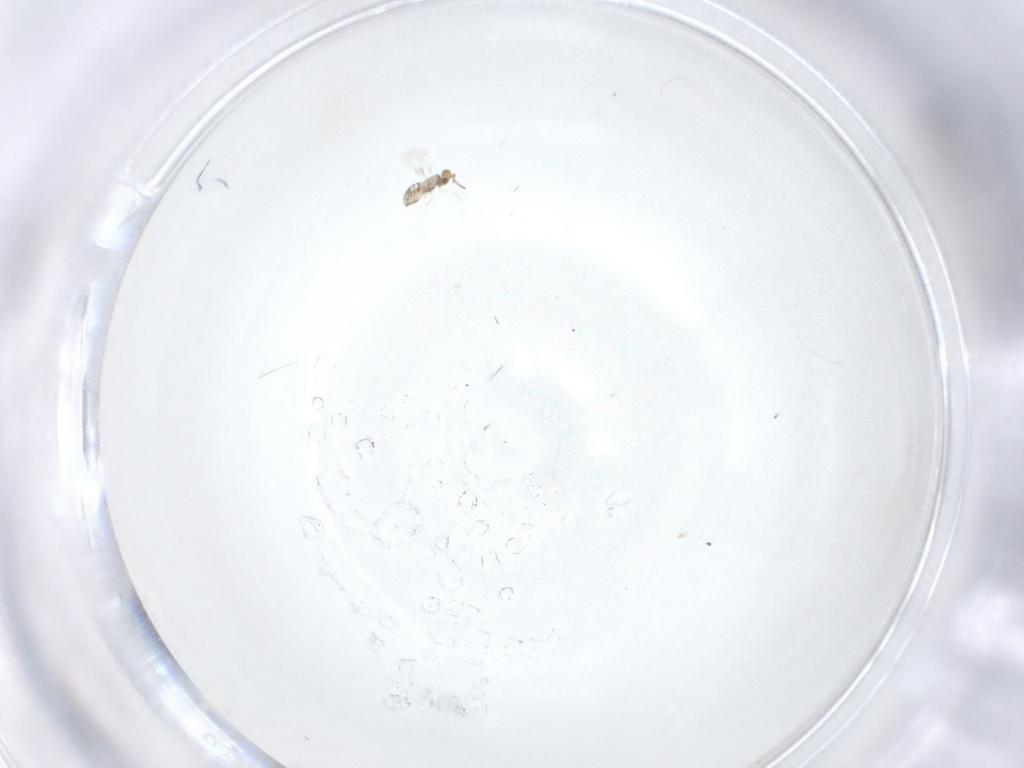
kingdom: Animalia
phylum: Arthropoda
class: Insecta
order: Hymenoptera
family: Aphelinidae
